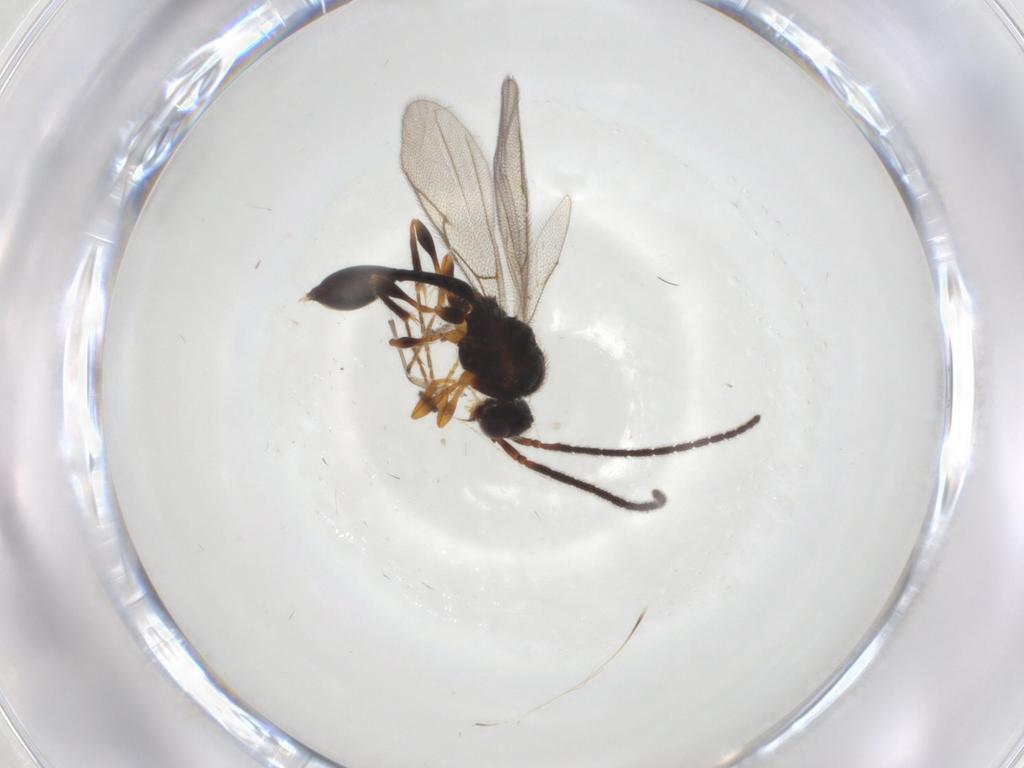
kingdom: Animalia
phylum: Arthropoda
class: Insecta
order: Hymenoptera
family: Diapriidae
